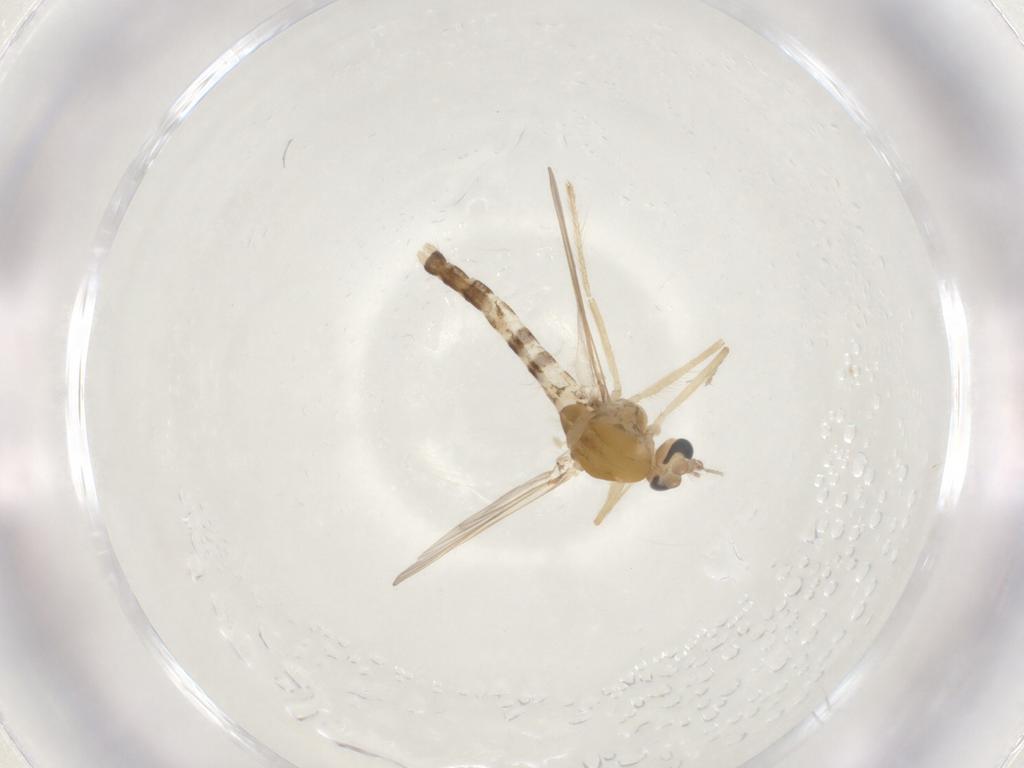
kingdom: Animalia
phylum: Arthropoda
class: Insecta
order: Diptera
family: Chironomidae
